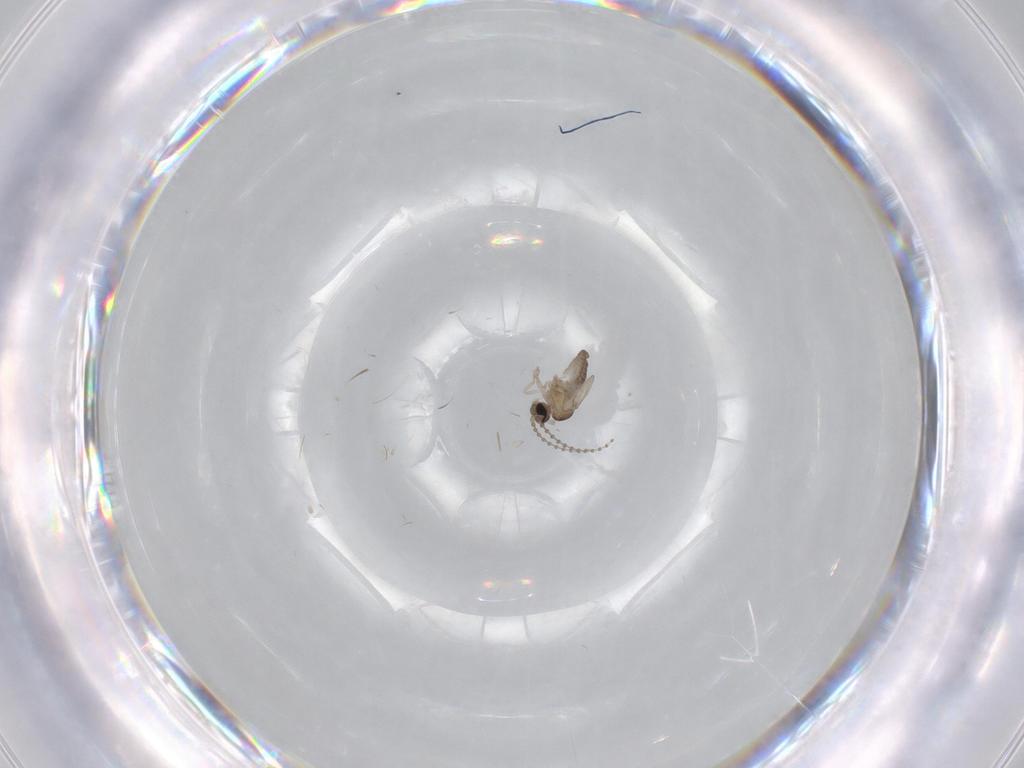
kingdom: Animalia
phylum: Arthropoda
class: Insecta
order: Diptera
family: Cecidomyiidae
